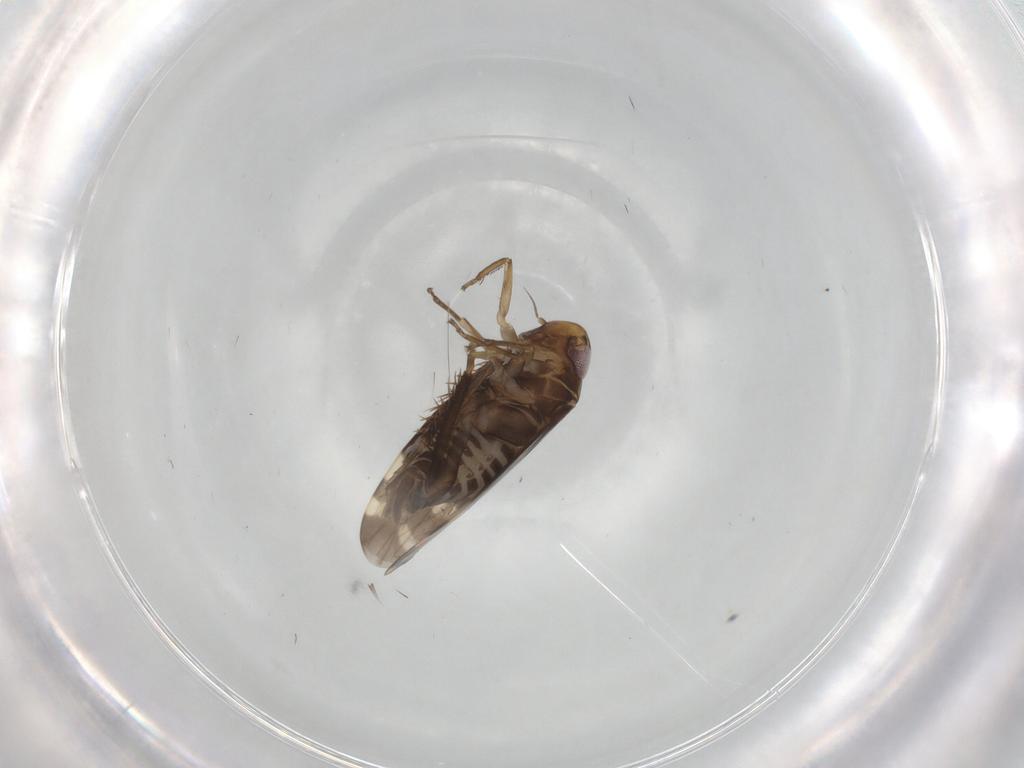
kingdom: Animalia
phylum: Arthropoda
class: Insecta
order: Hemiptera
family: Cicadellidae
